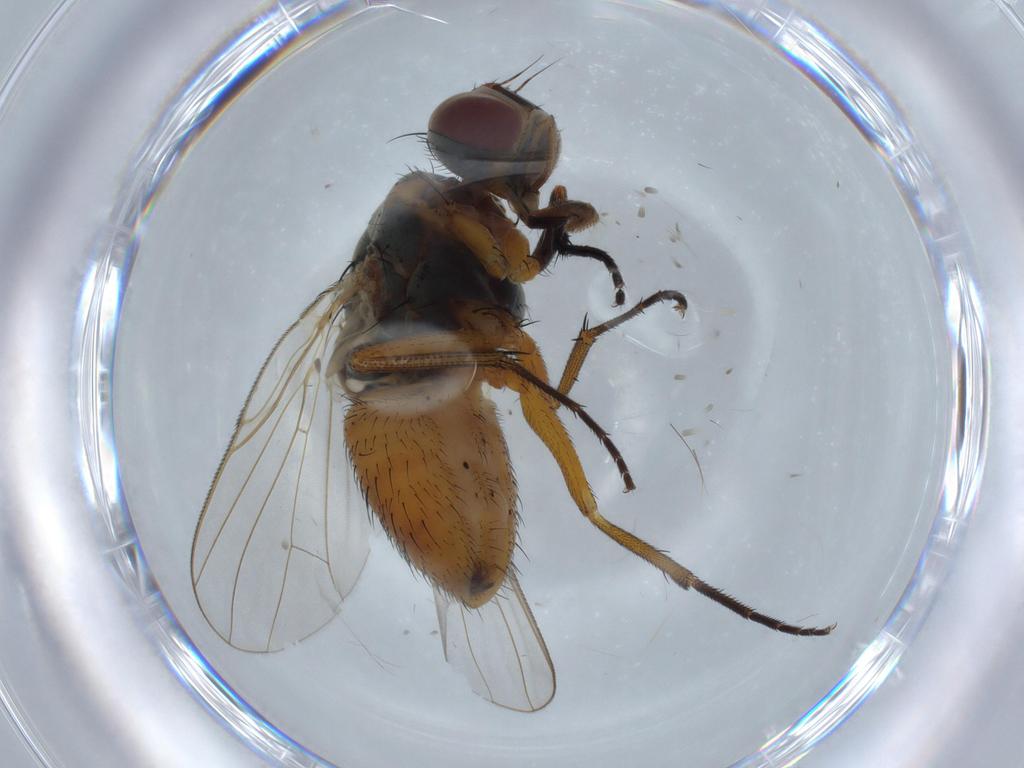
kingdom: Animalia
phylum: Arthropoda
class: Insecta
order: Diptera
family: Muscidae
